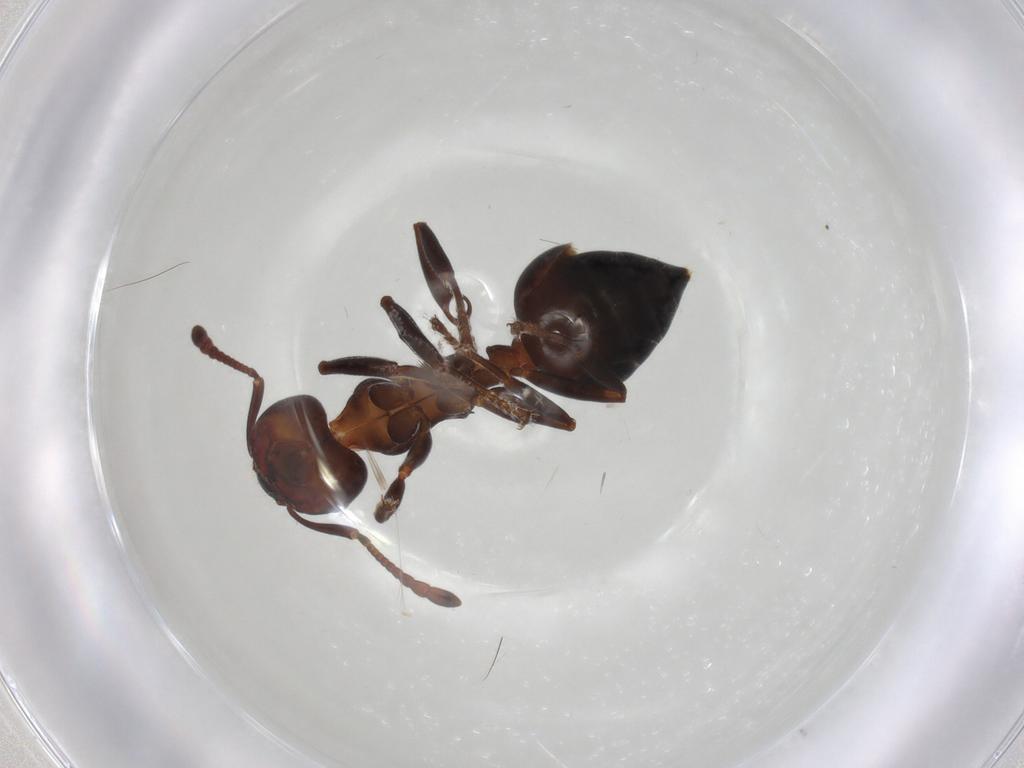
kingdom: Animalia
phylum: Arthropoda
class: Insecta
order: Hymenoptera
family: Formicidae
